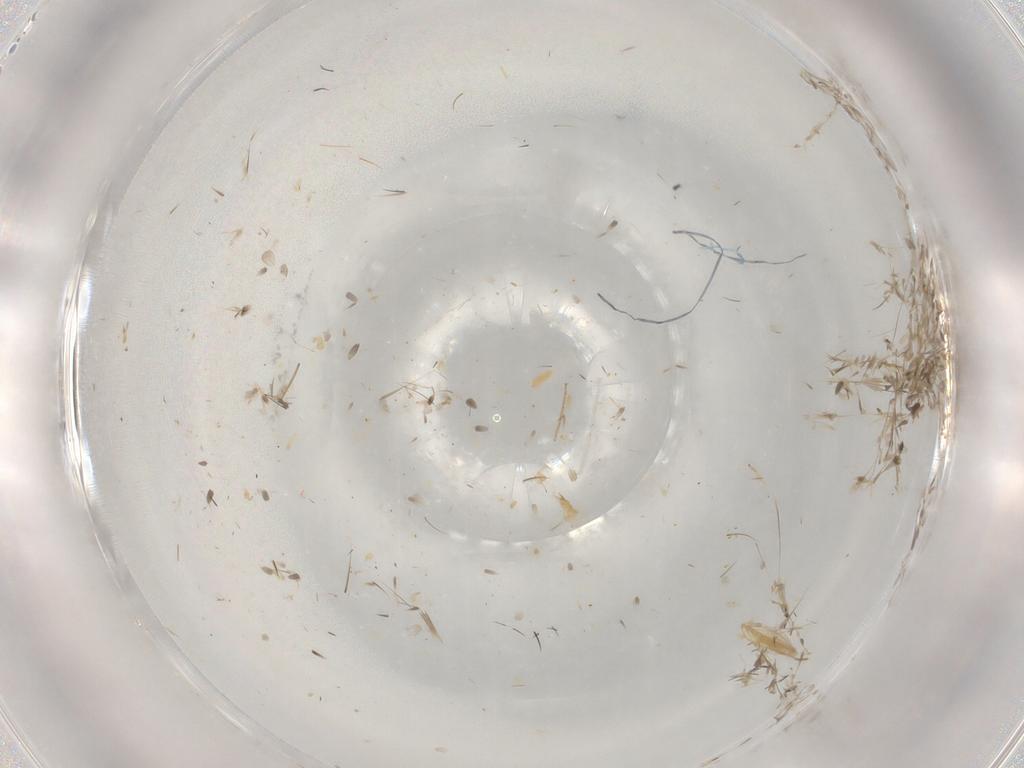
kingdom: Animalia
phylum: Arthropoda
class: Insecta
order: Diptera
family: Dolichopodidae
